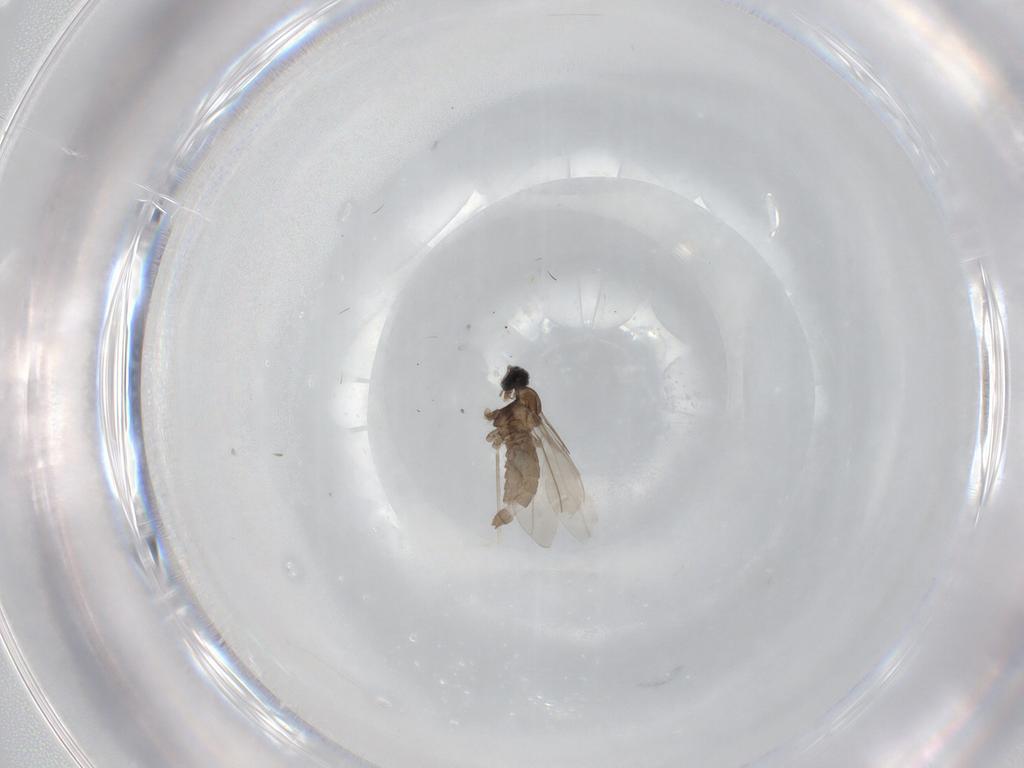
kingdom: Animalia
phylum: Arthropoda
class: Insecta
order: Diptera
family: Cecidomyiidae
